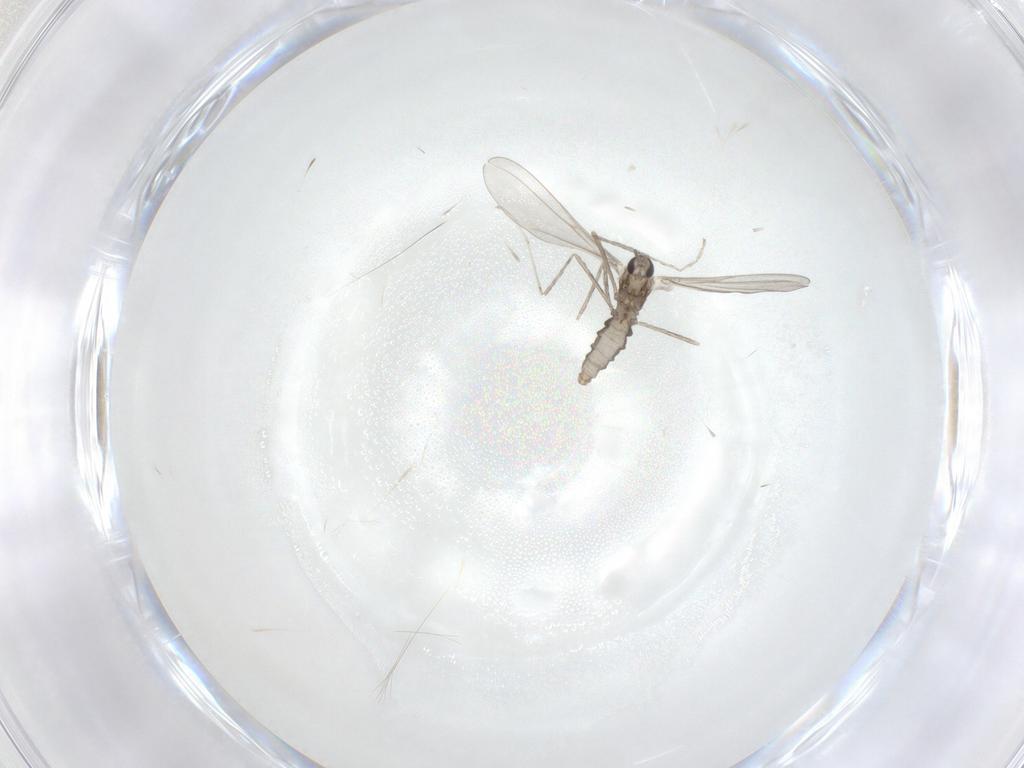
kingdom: Animalia
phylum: Arthropoda
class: Insecta
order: Diptera
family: Cecidomyiidae
